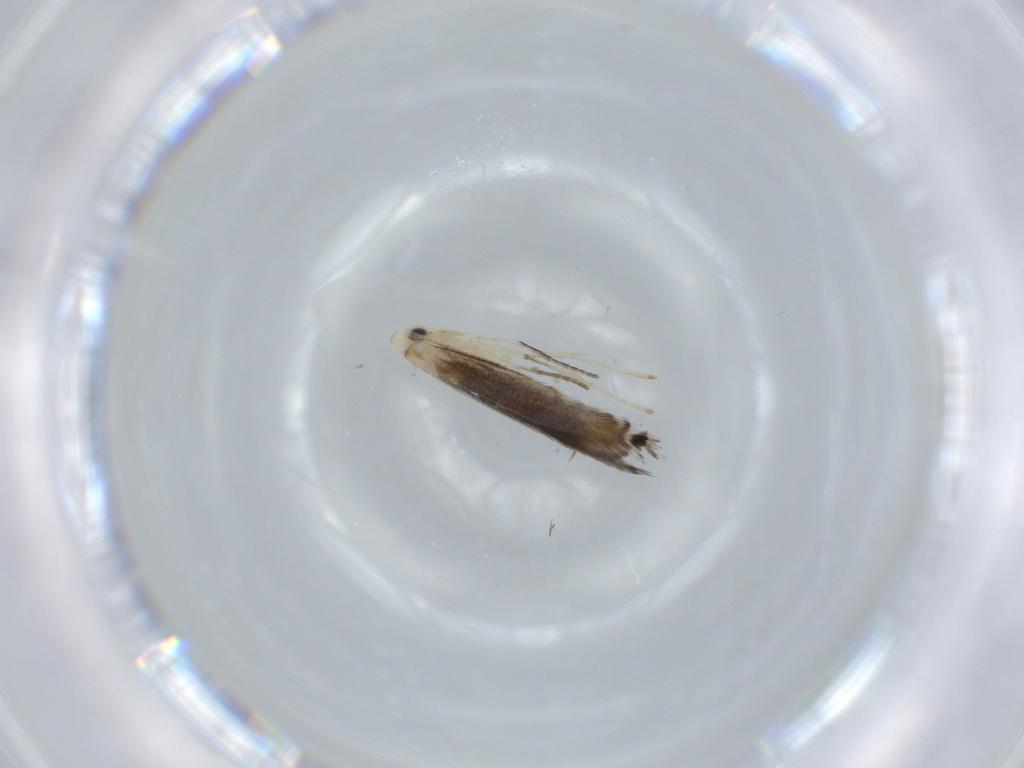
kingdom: Animalia
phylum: Arthropoda
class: Insecta
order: Lepidoptera
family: Gracillariidae
